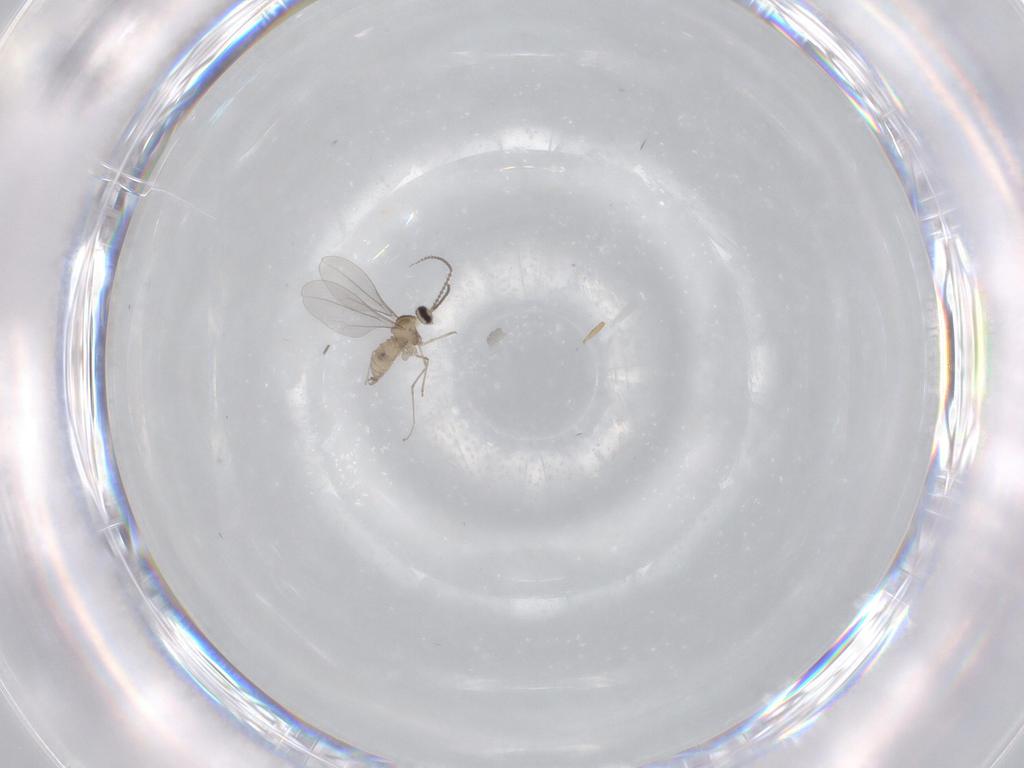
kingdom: Animalia
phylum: Arthropoda
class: Insecta
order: Diptera
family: Cecidomyiidae
